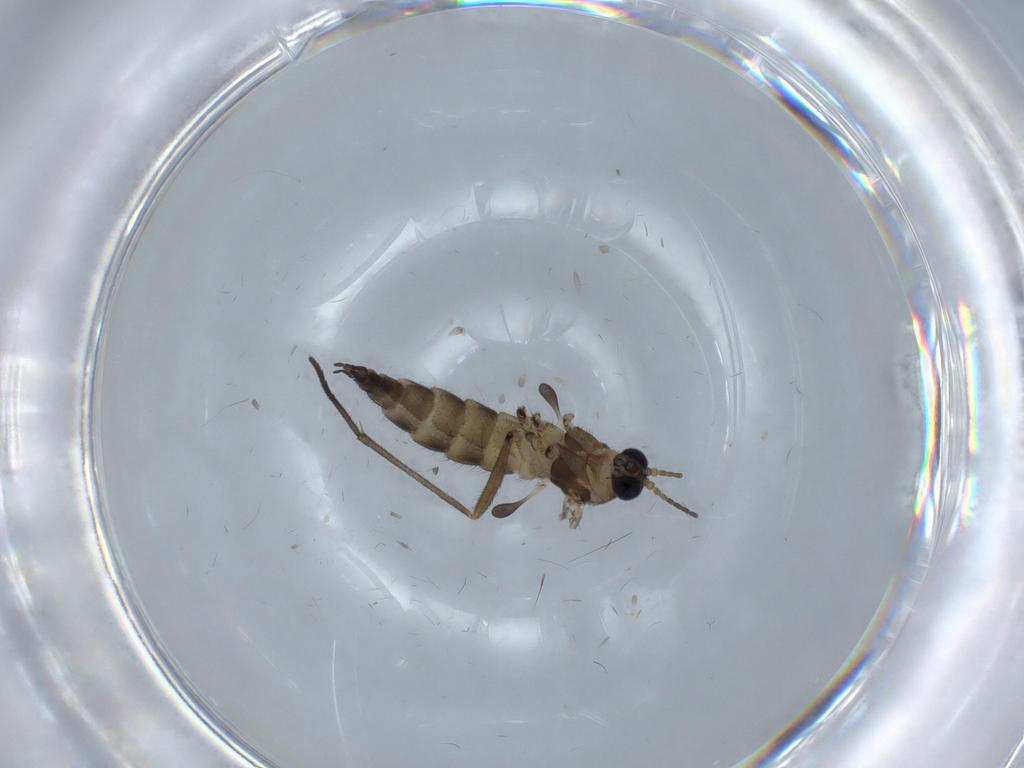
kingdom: Animalia
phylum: Arthropoda
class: Insecta
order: Diptera
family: Sciaridae
